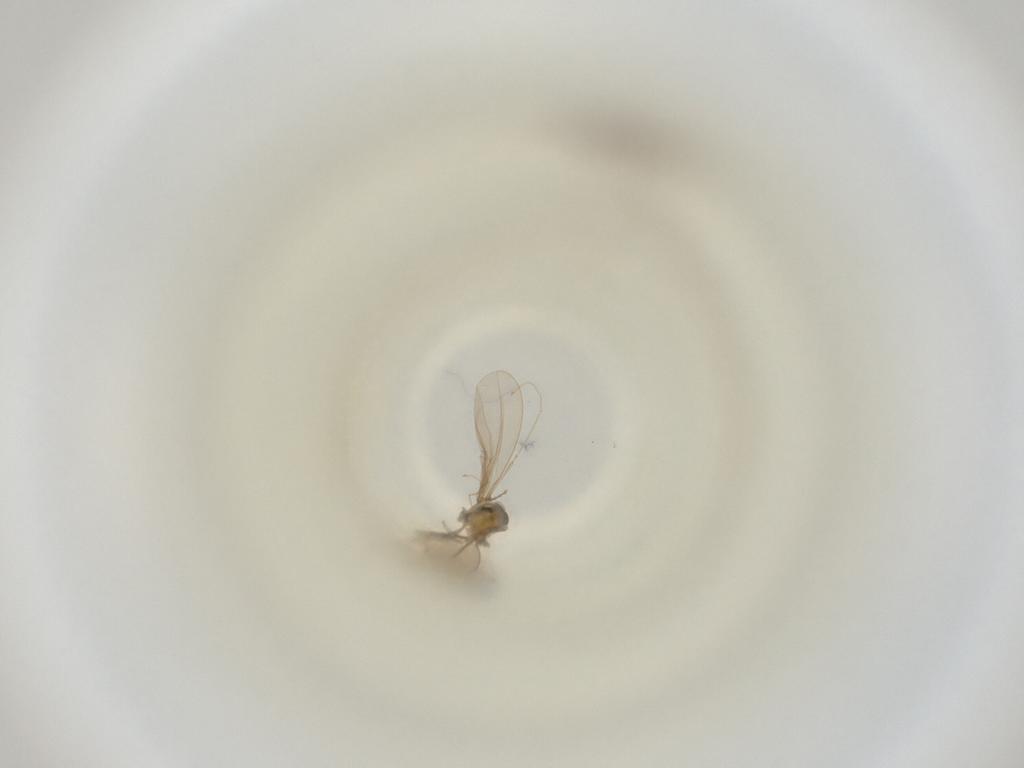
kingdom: Animalia
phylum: Arthropoda
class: Insecta
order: Diptera
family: Cecidomyiidae
